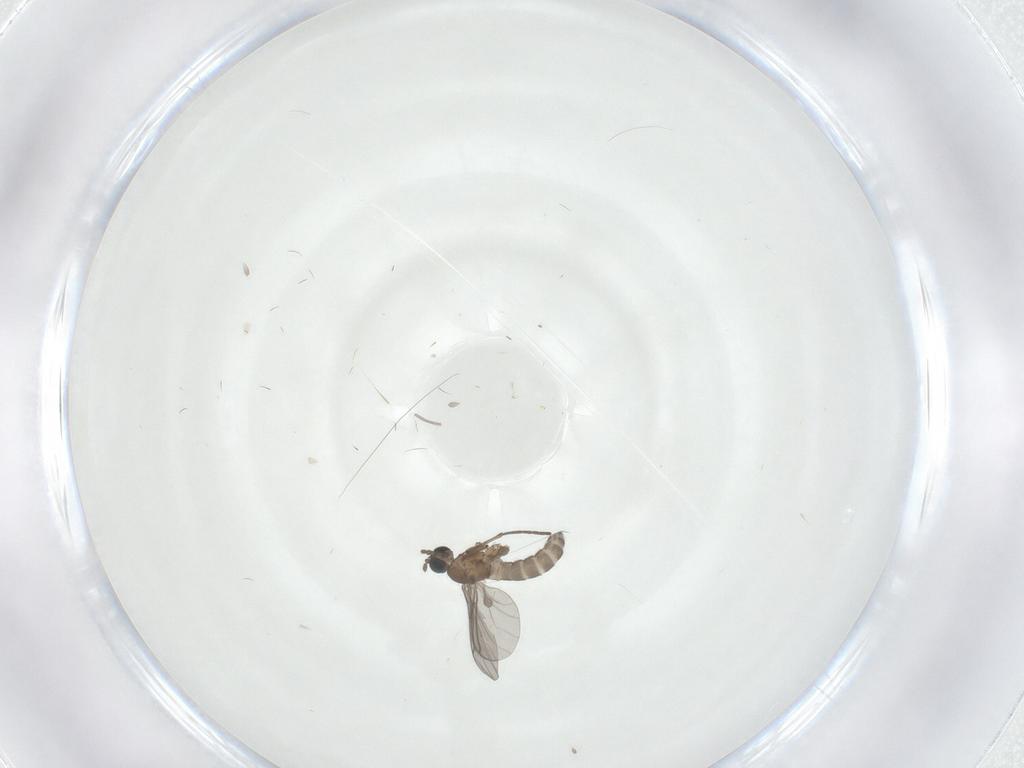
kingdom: Animalia
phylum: Arthropoda
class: Insecta
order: Diptera
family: Sciaridae
